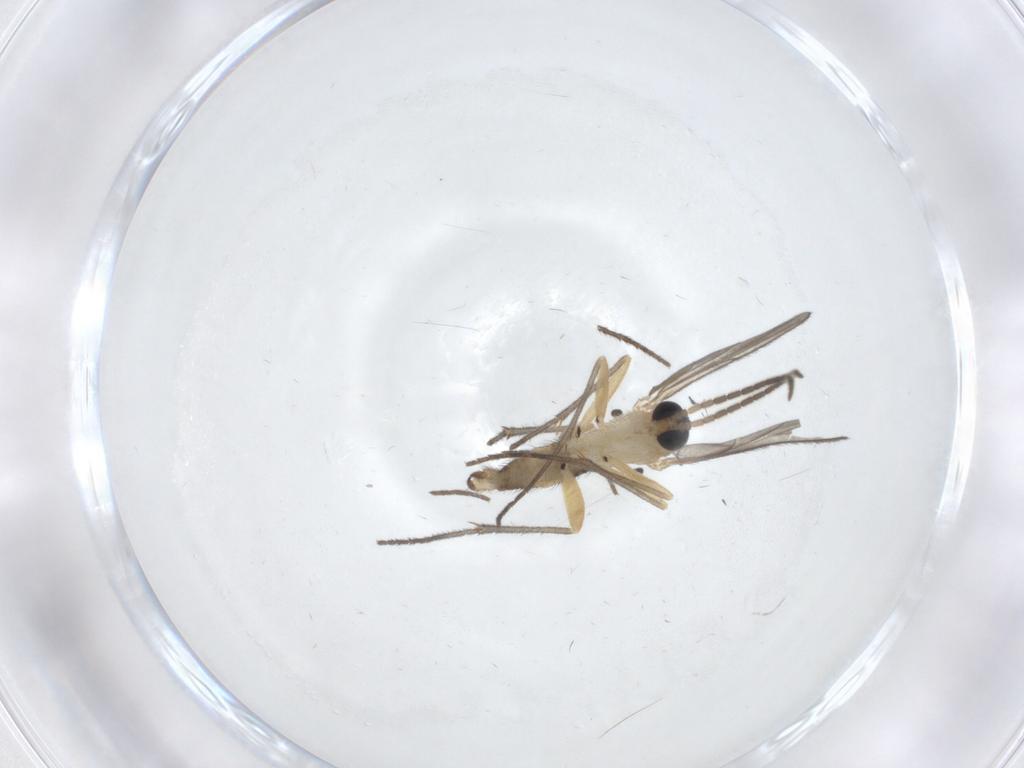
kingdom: Animalia
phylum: Arthropoda
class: Insecta
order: Diptera
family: Sciaridae
